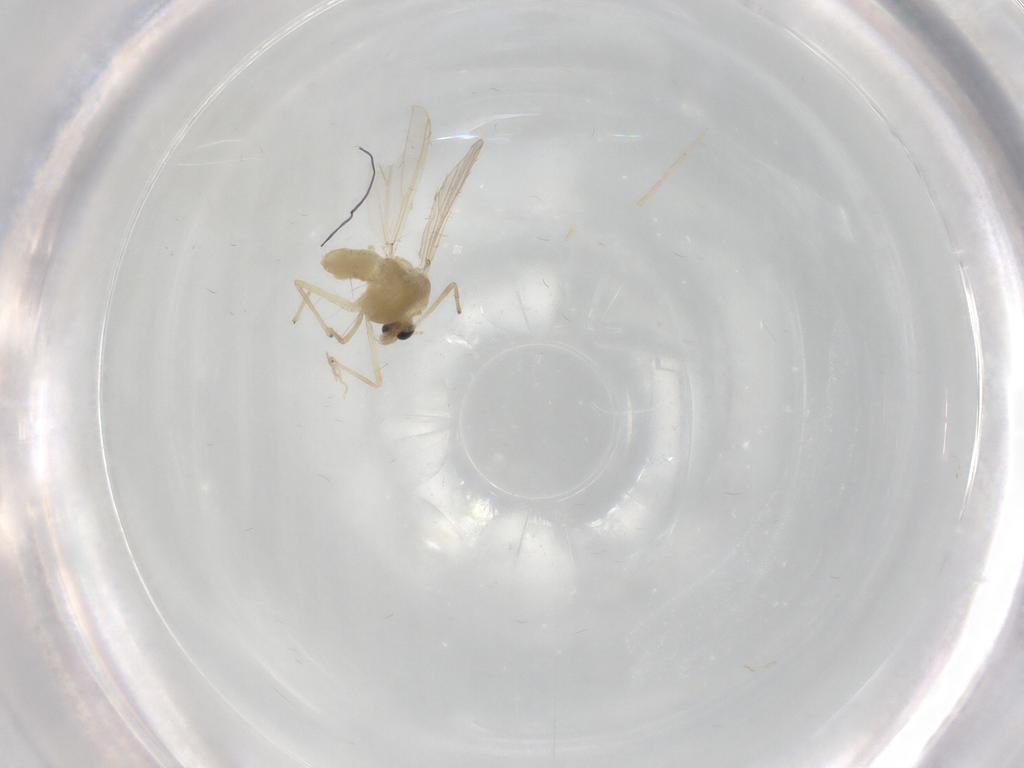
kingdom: Animalia
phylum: Arthropoda
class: Insecta
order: Diptera
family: Chironomidae
